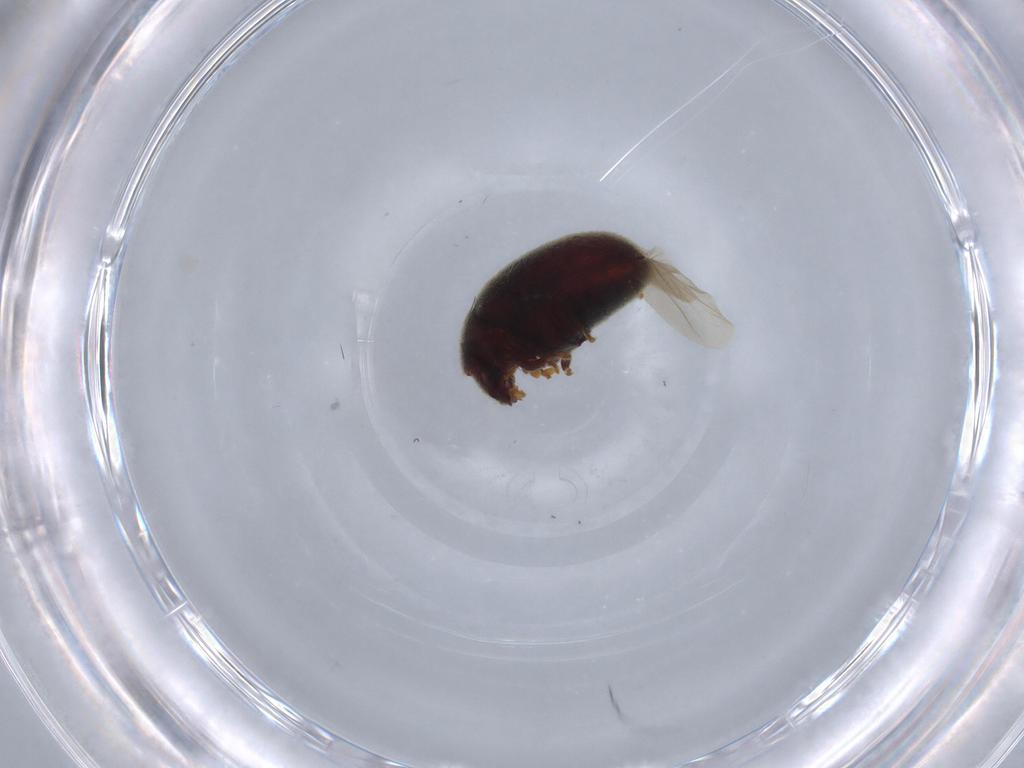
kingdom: Animalia
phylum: Arthropoda
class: Insecta
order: Coleoptera
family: Ptinidae
